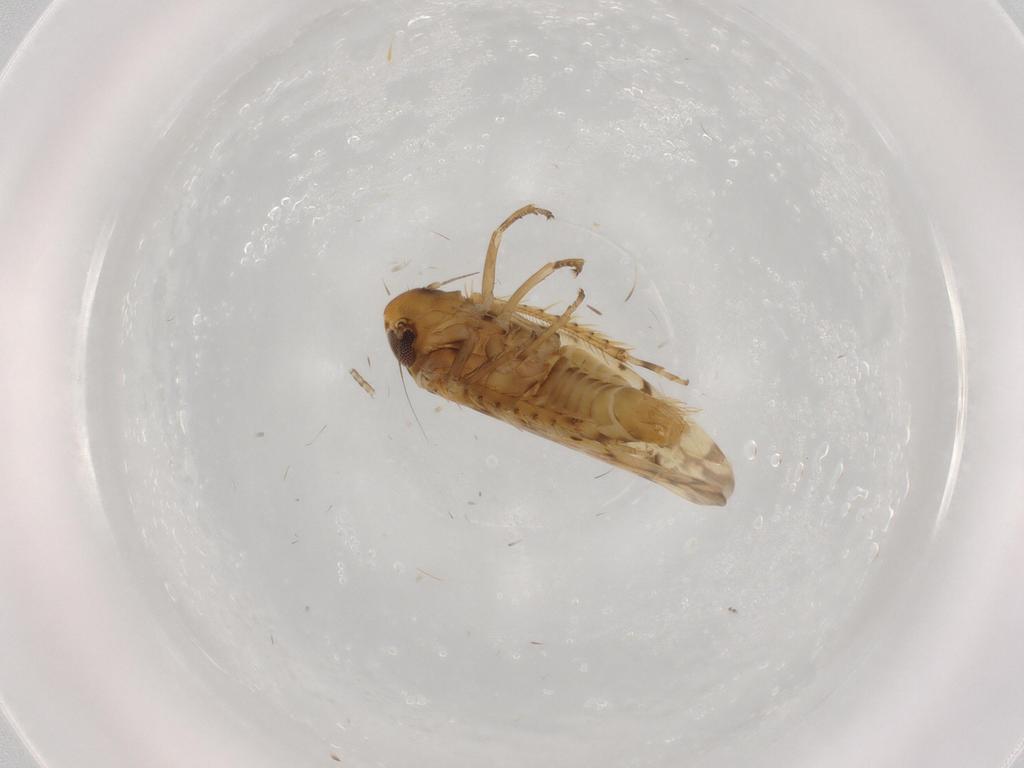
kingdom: Animalia
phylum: Arthropoda
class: Insecta
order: Hemiptera
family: Cicadellidae
